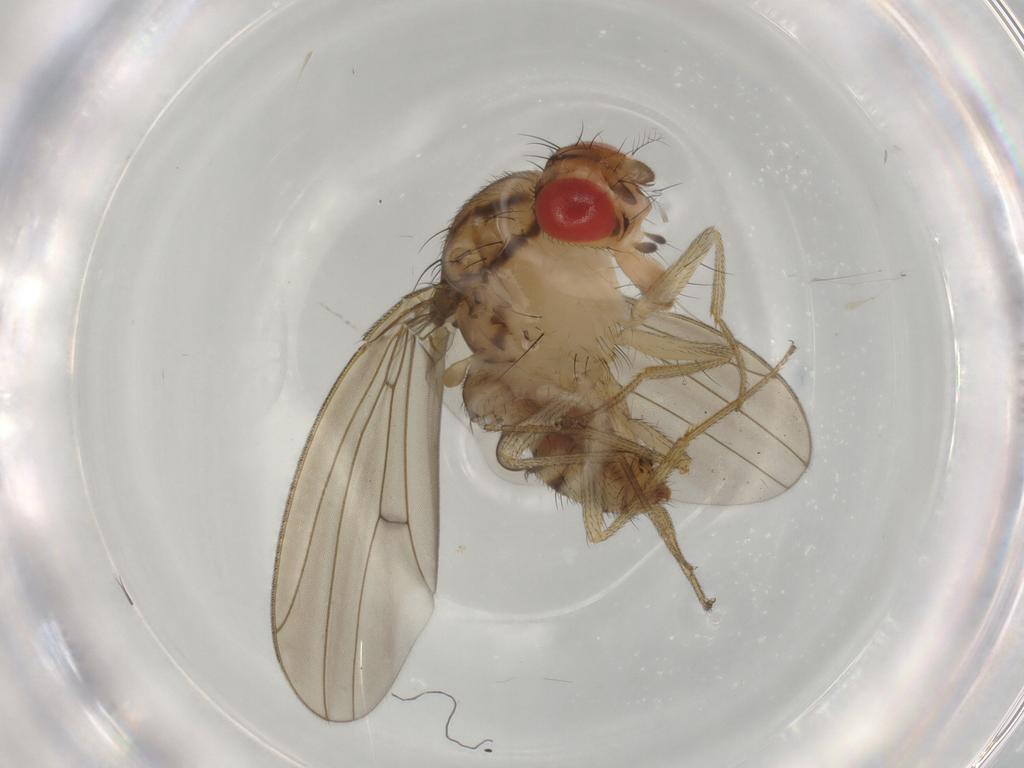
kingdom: Animalia
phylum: Arthropoda
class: Insecta
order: Diptera
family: Drosophilidae
